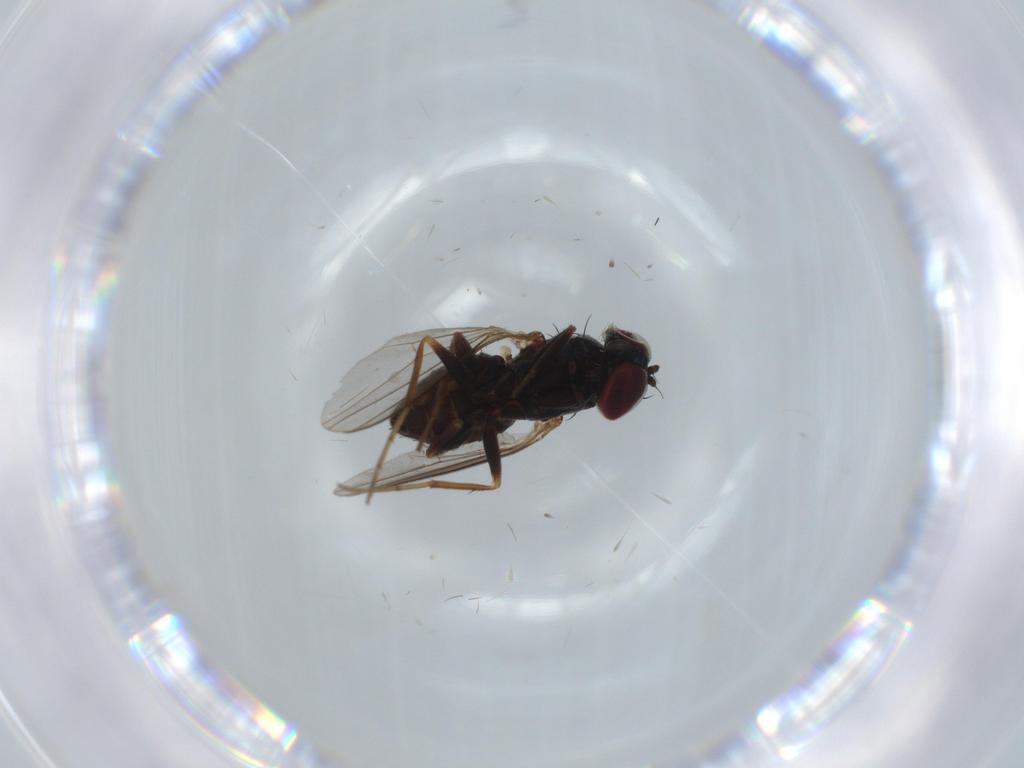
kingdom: Animalia
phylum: Arthropoda
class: Insecta
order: Diptera
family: Dolichopodidae
